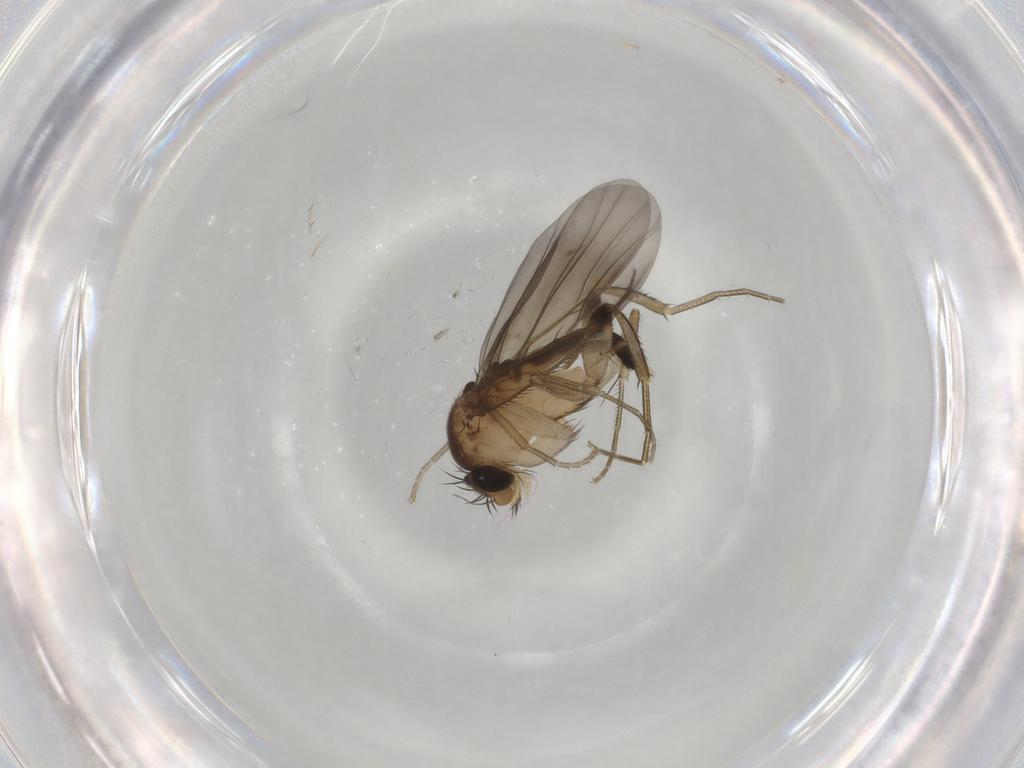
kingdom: Animalia
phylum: Arthropoda
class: Insecta
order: Diptera
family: Phoridae
